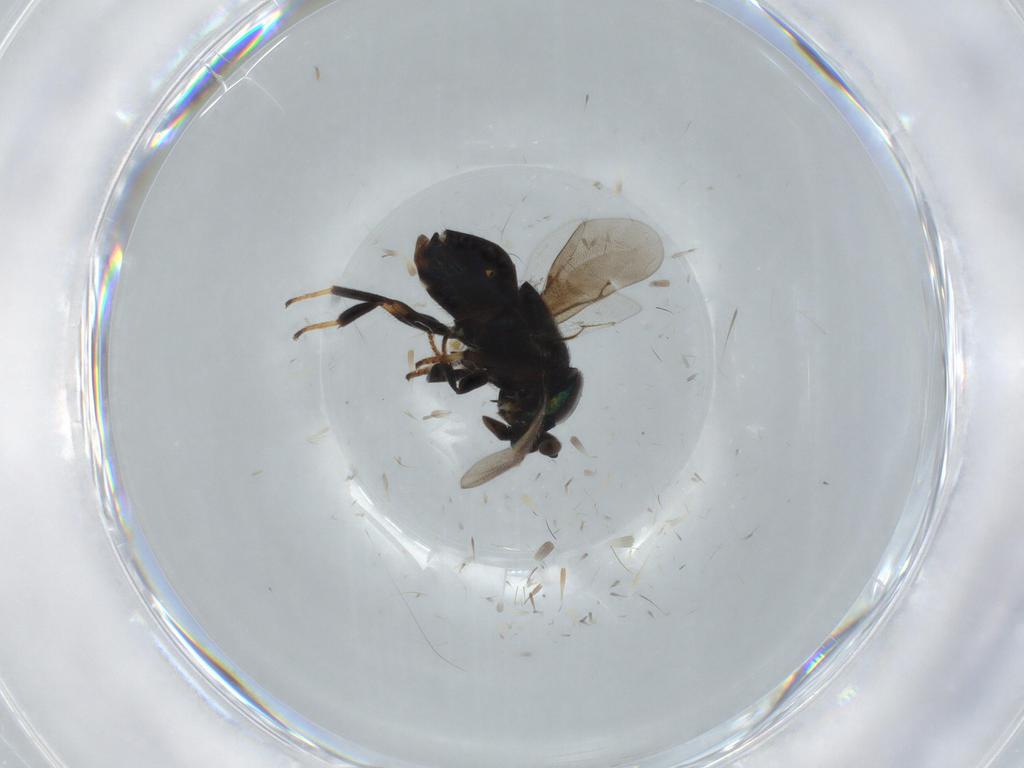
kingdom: Animalia
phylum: Arthropoda
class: Insecta
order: Hymenoptera
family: Encyrtidae
